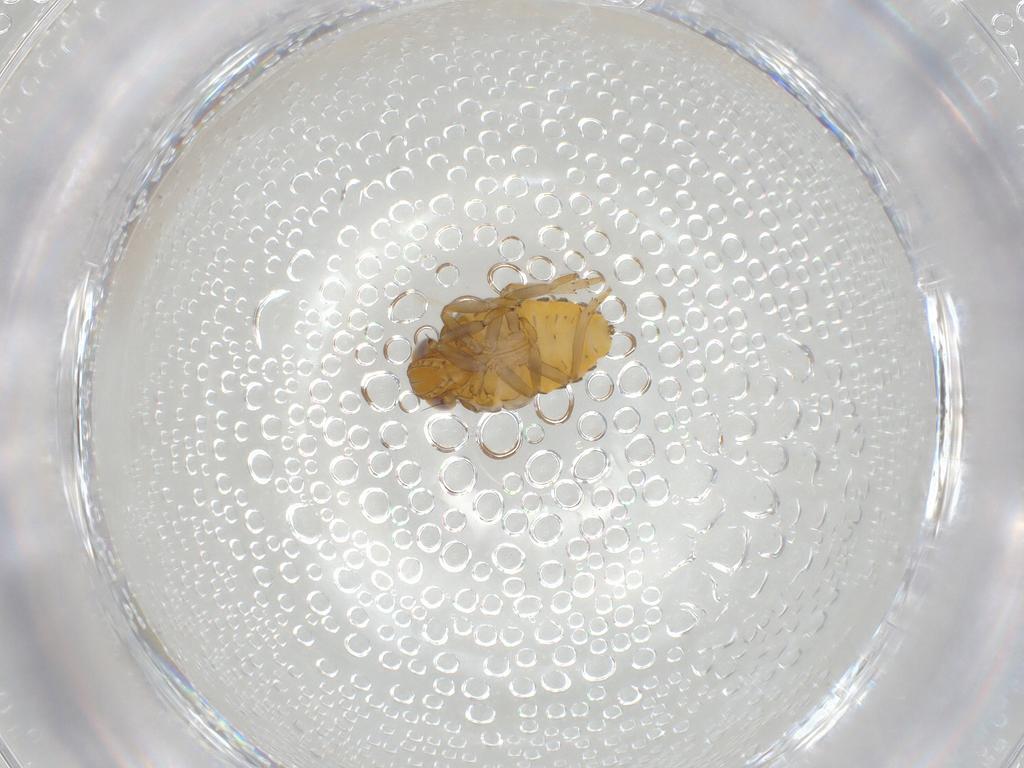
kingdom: Animalia
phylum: Arthropoda
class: Insecta
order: Hemiptera
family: Issidae
